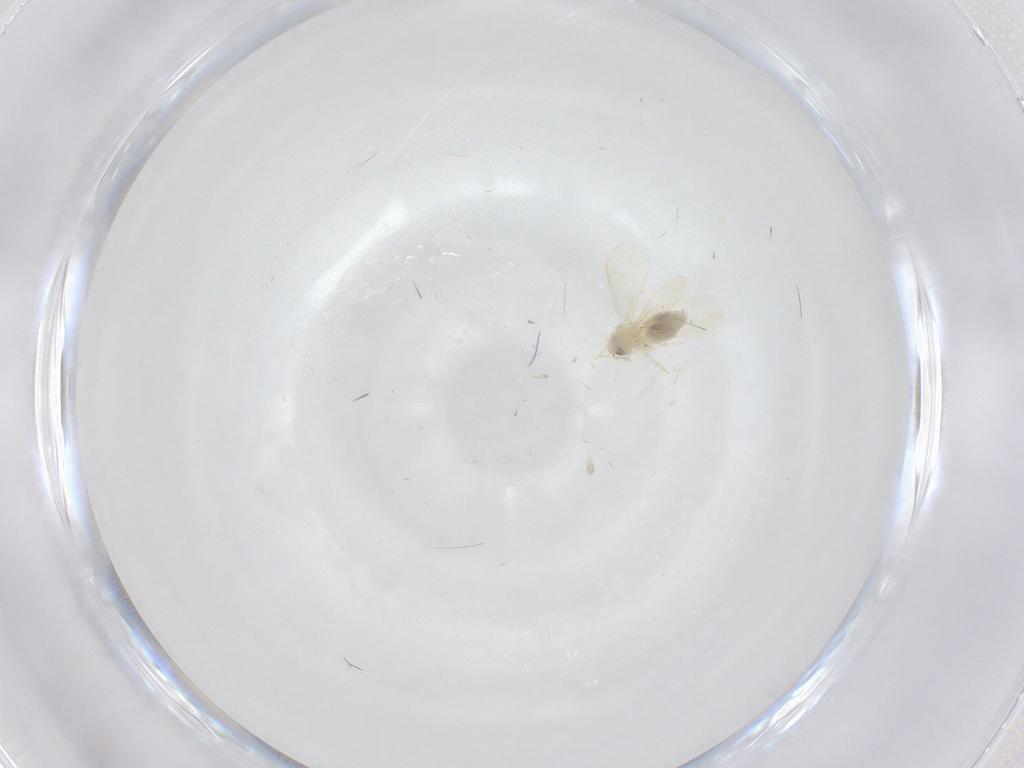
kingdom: Animalia
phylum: Arthropoda
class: Insecta
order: Hemiptera
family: Aleyrodidae
